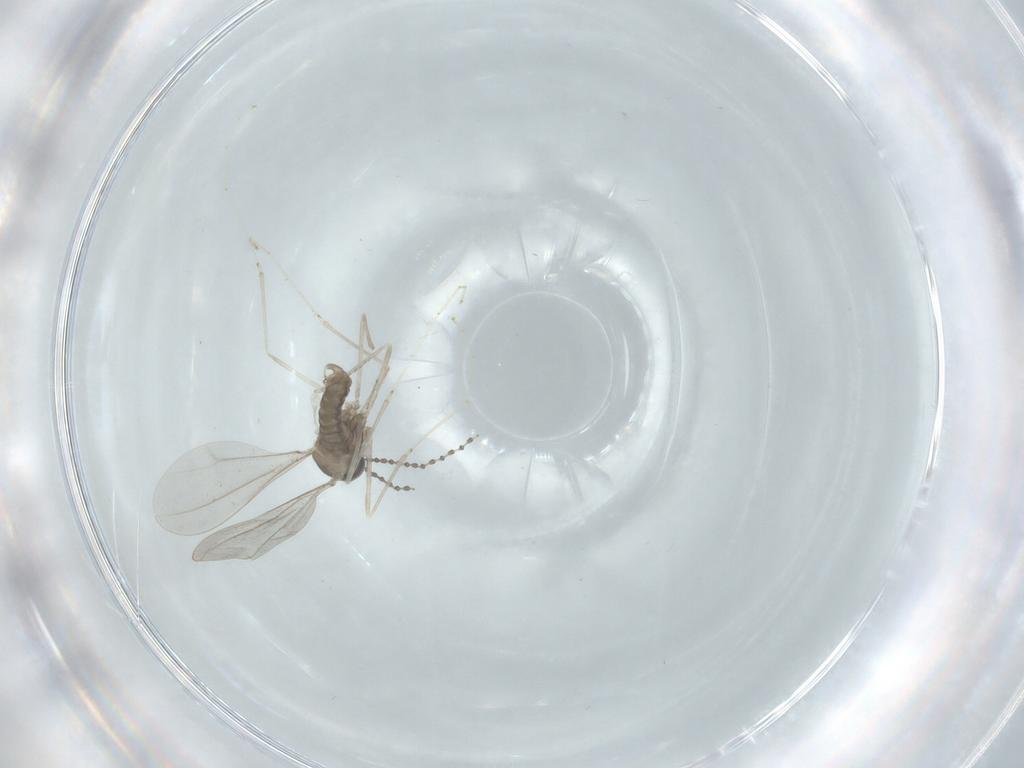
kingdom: Animalia
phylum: Arthropoda
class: Insecta
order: Diptera
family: Cecidomyiidae
